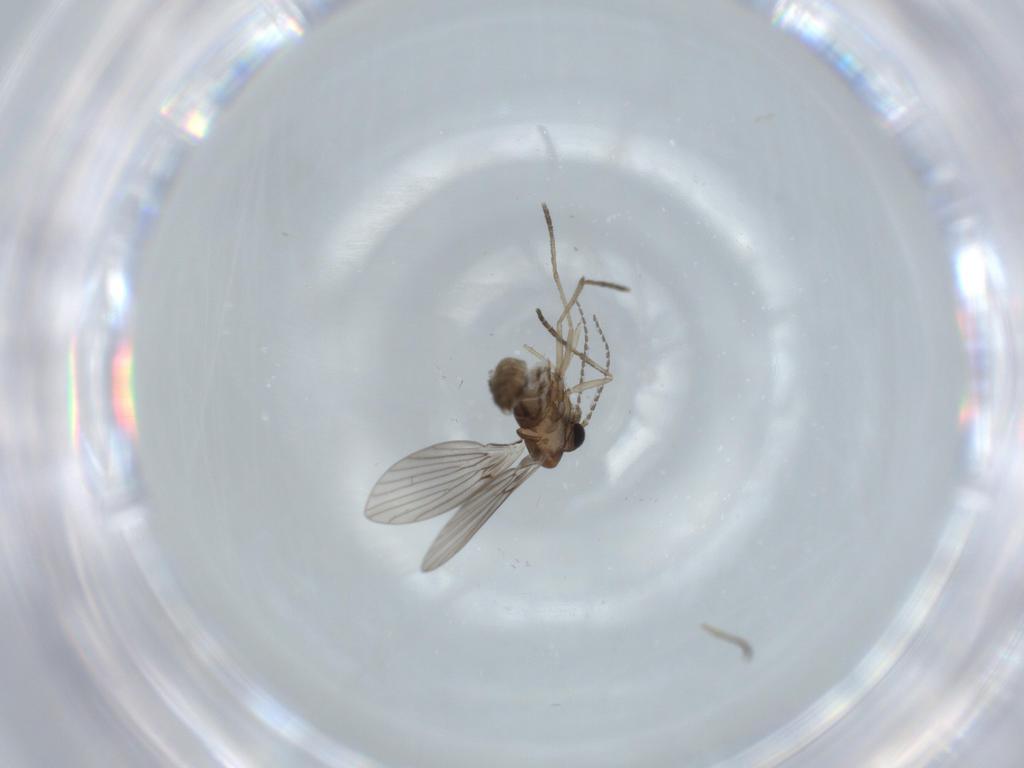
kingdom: Animalia
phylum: Arthropoda
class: Insecta
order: Diptera
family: Psychodidae
